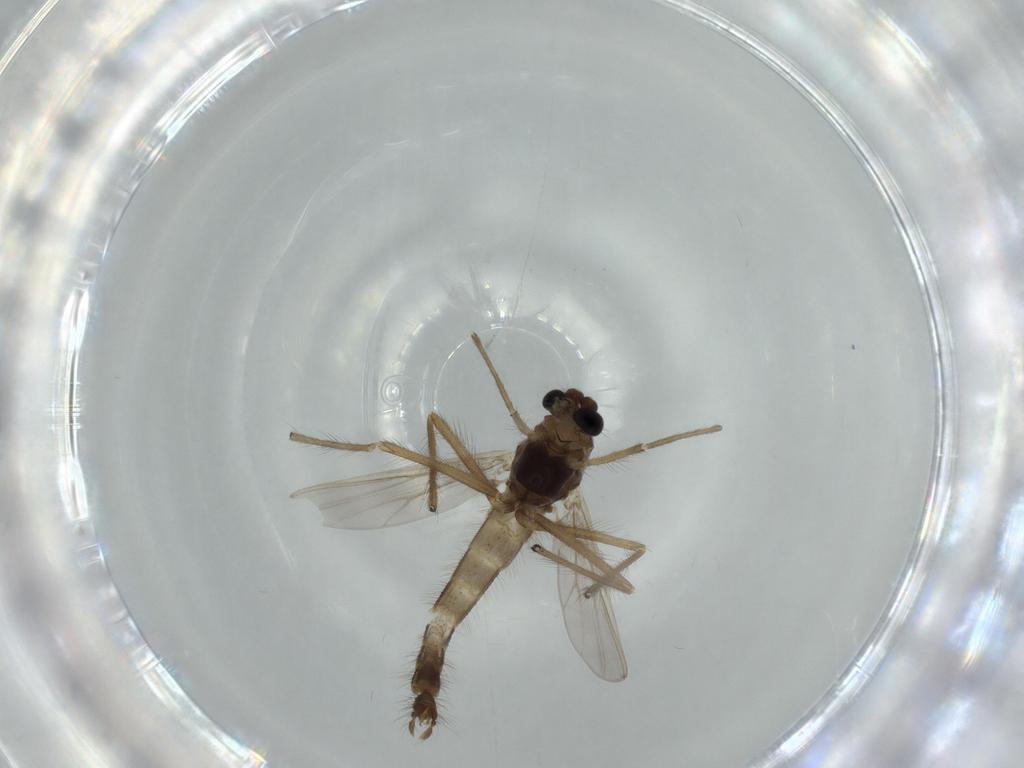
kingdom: Animalia
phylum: Arthropoda
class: Insecta
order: Diptera
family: Chironomidae
